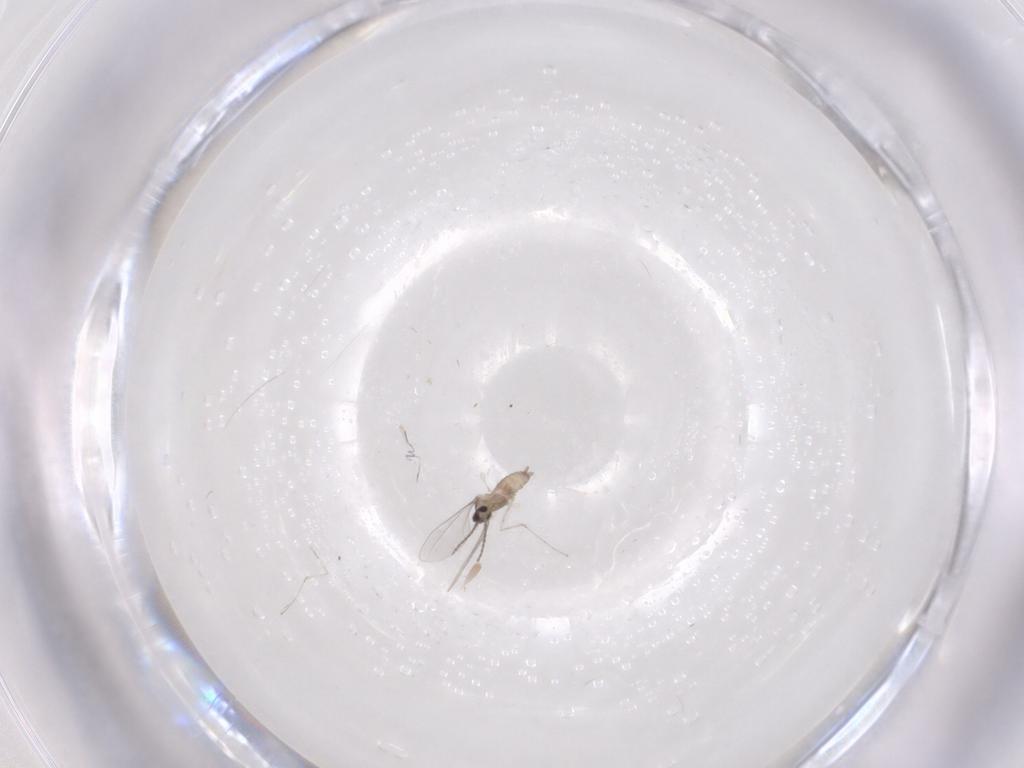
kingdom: Animalia
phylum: Arthropoda
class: Insecta
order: Diptera
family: Cecidomyiidae
